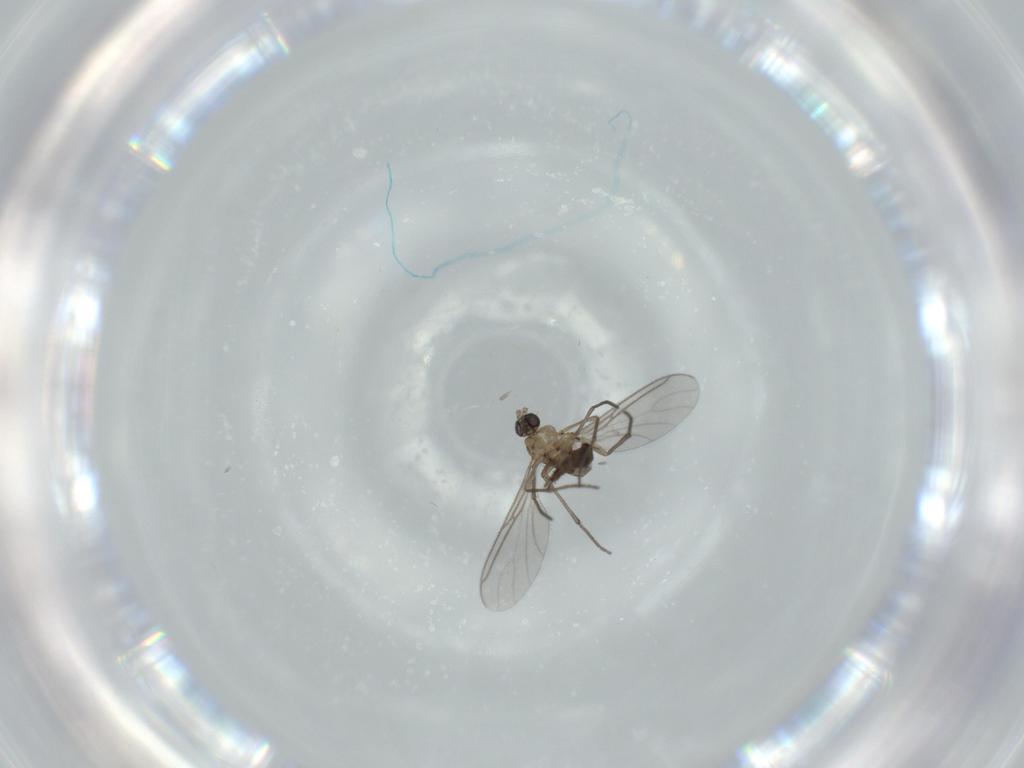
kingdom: Animalia
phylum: Arthropoda
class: Insecta
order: Diptera
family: Sciaridae
